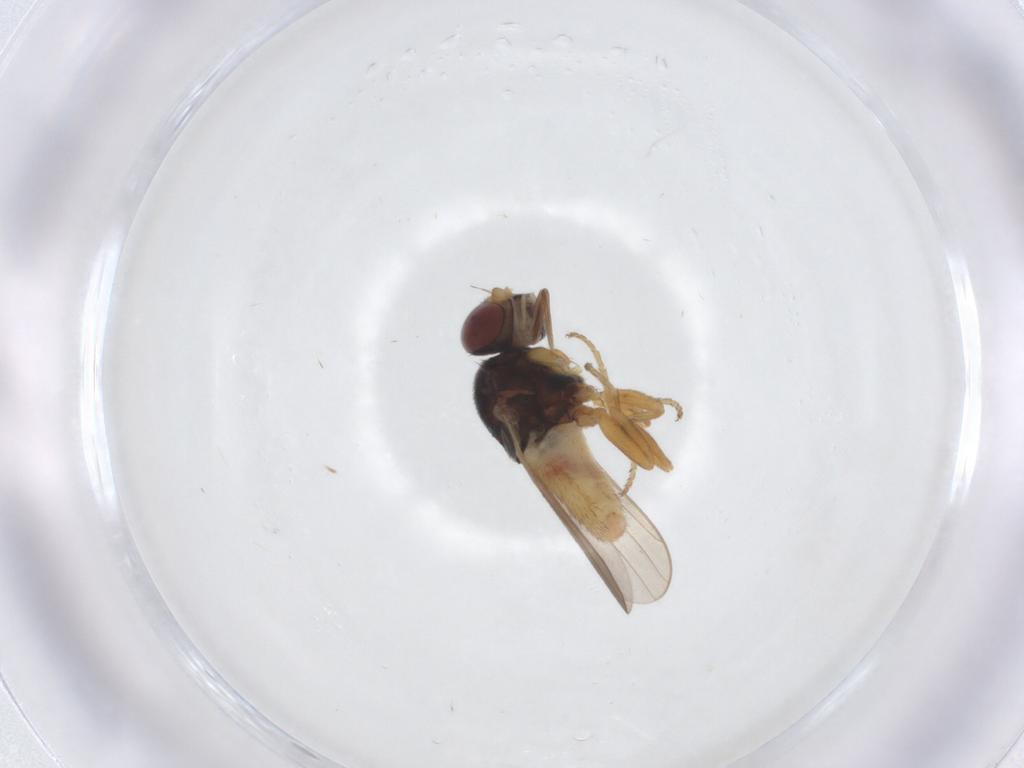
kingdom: Animalia
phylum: Arthropoda
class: Insecta
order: Diptera
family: Chloropidae
